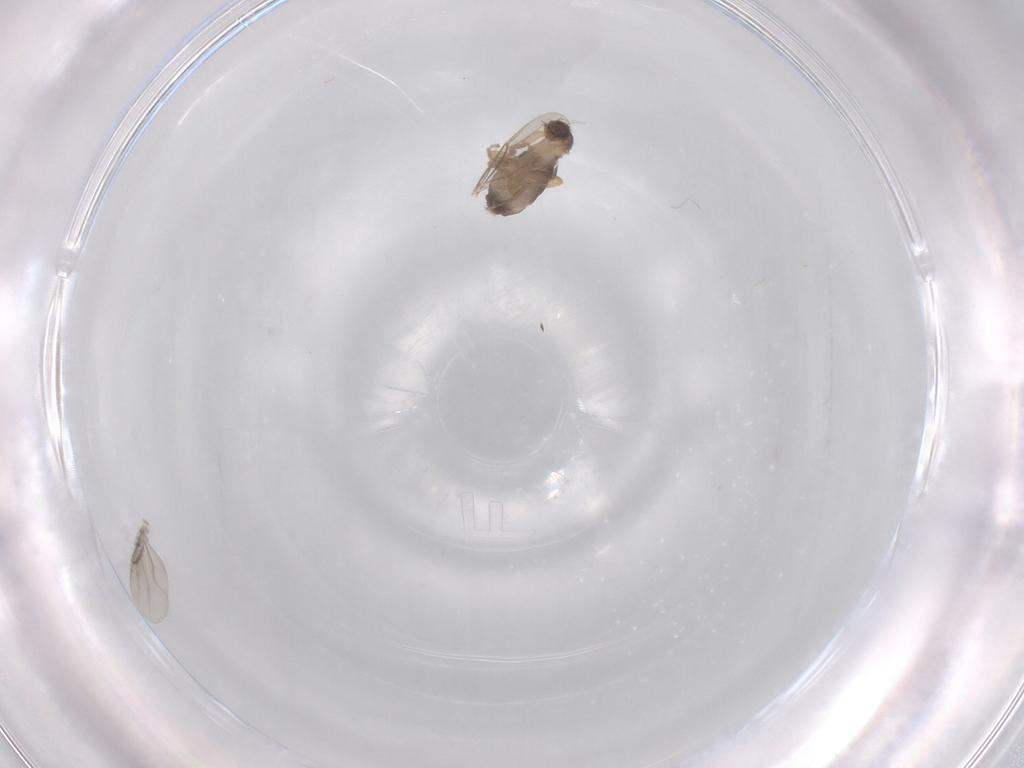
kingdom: Animalia
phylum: Arthropoda
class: Insecta
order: Diptera
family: Phoridae
